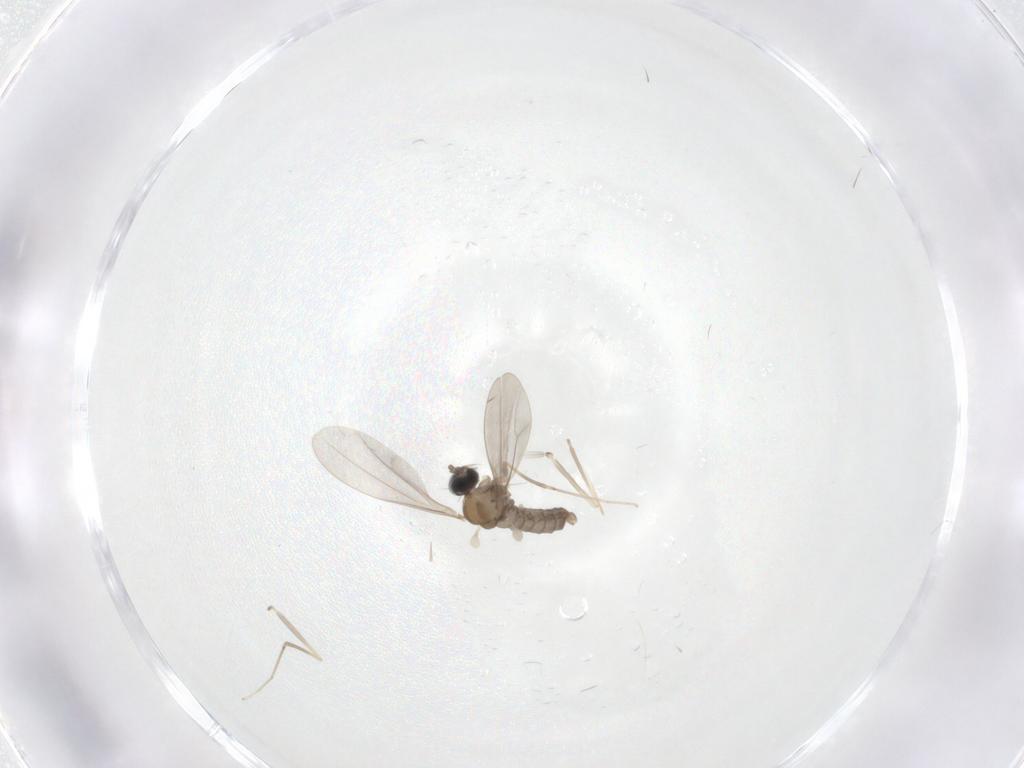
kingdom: Animalia
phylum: Arthropoda
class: Insecta
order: Diptera
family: Cecidomyiidae
